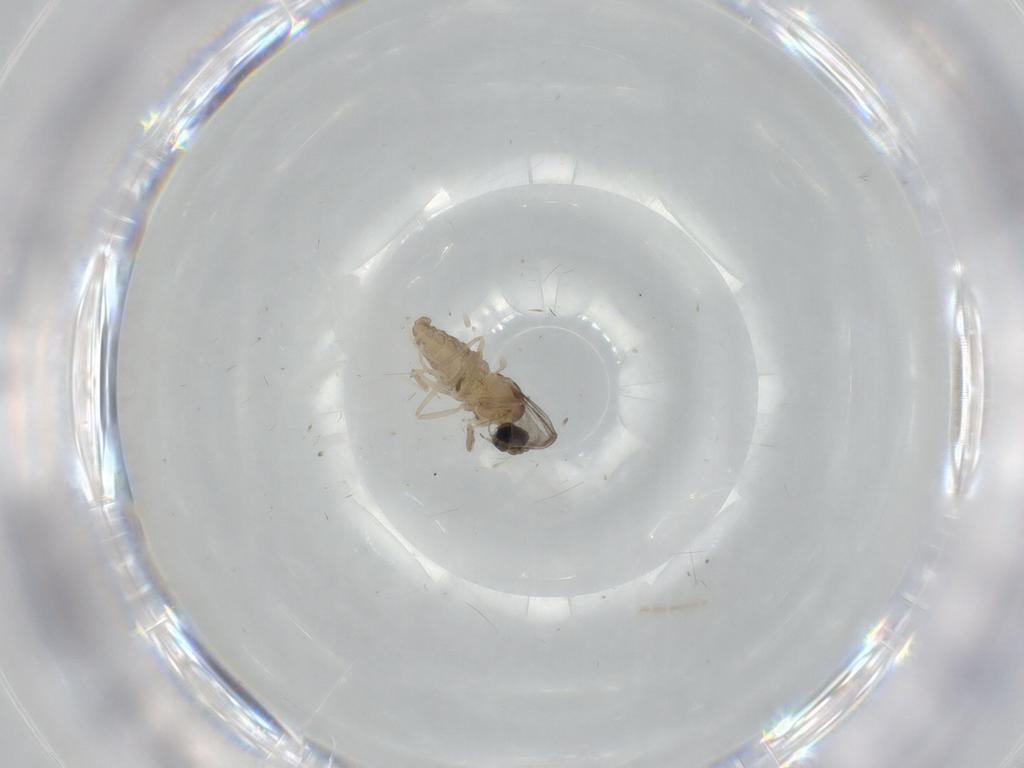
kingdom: Animalia
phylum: Arthropoda
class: Insecta
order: Diptera
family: Cecidomyiidae
